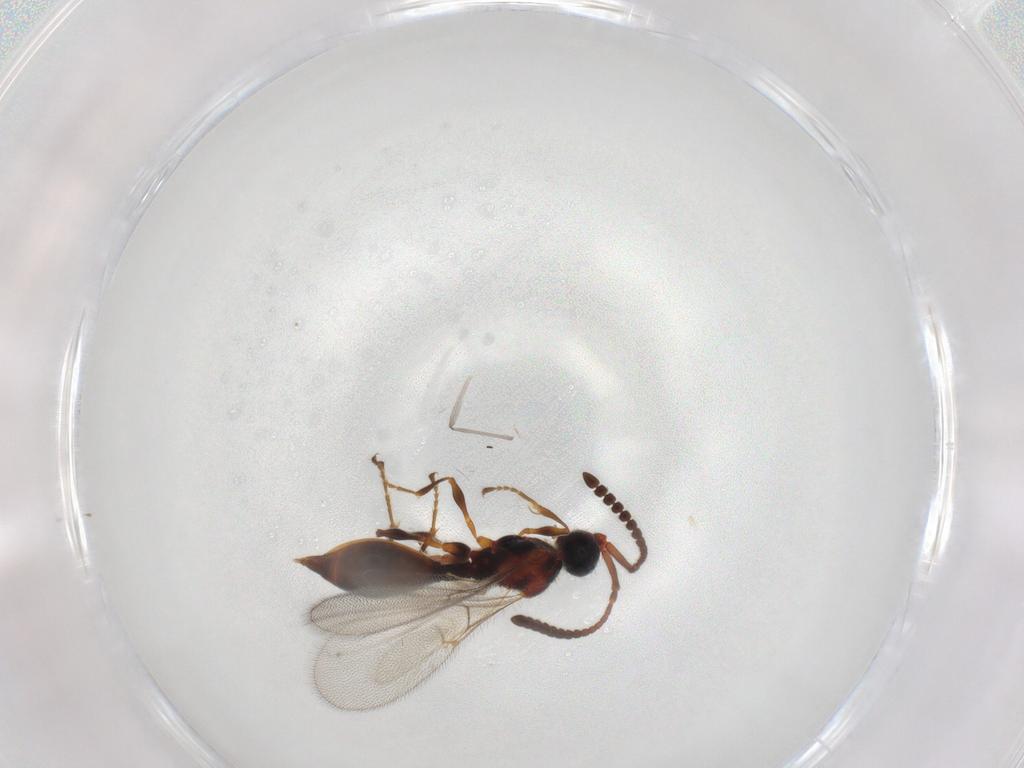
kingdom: Animalia
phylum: Arthropoda
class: Insecta
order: Hymenoptera
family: Diapriidae
